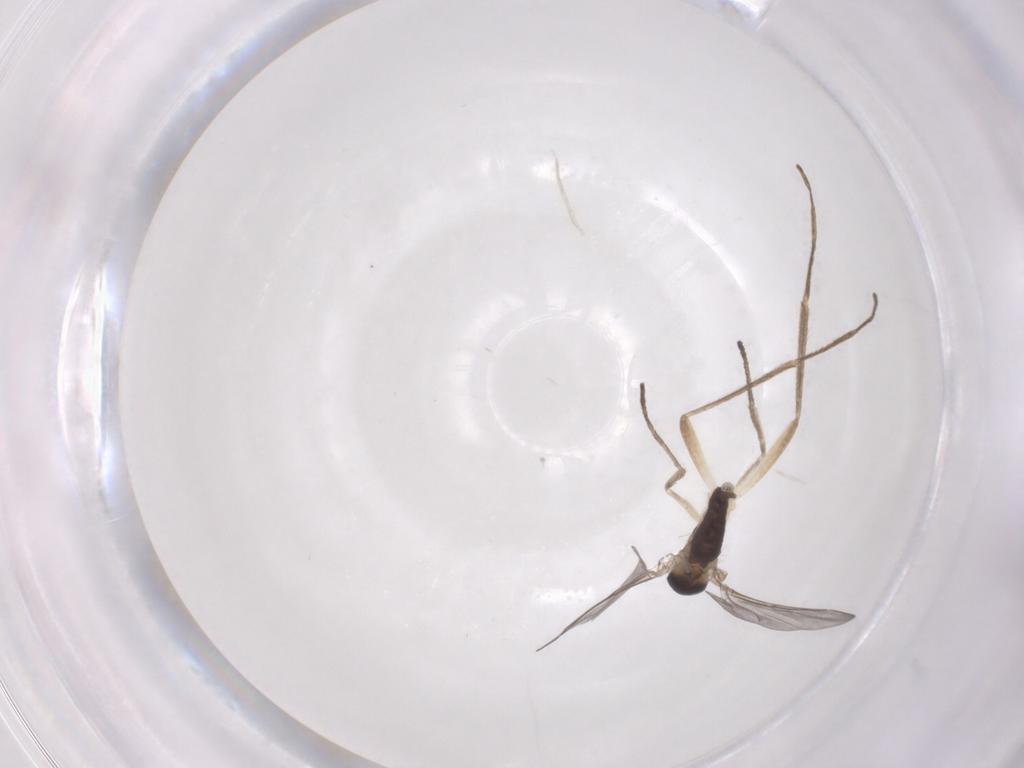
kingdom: Animalia
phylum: Arthropoda
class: Insecta
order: Diptera
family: Cecidomyiidae
